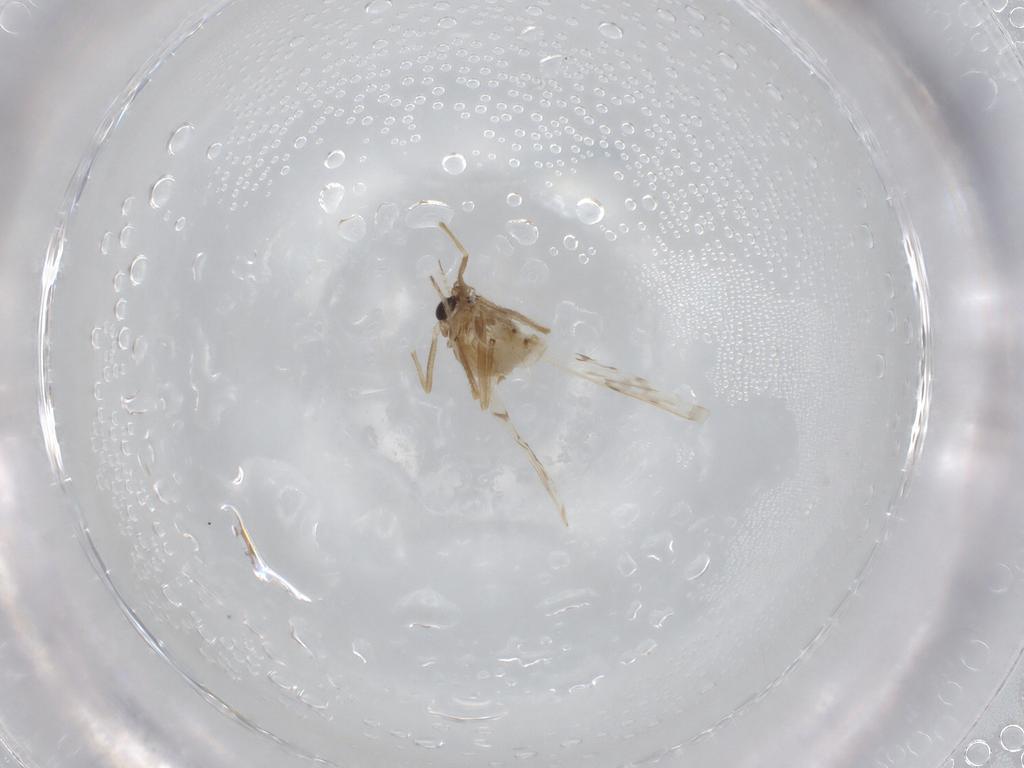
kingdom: Animalia
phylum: Arthropoda
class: Insecta
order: Diptera
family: Chironomidae
